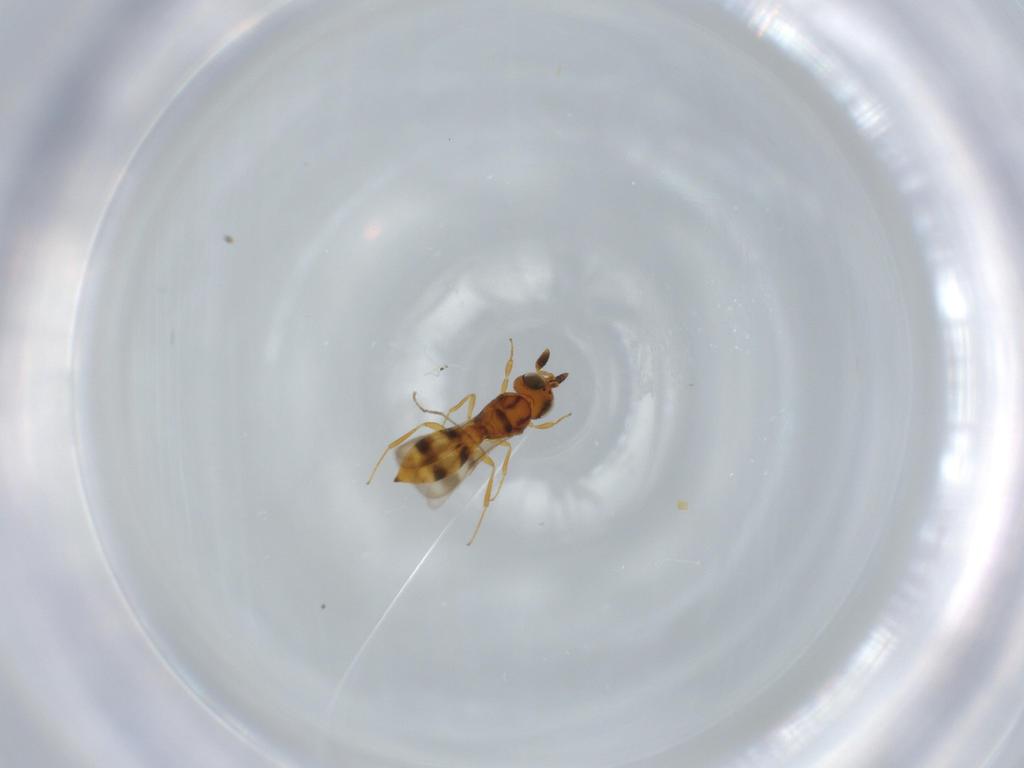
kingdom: Animalia
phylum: Arthropoda
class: Insecta
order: Hymenoptera
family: Scelionidae
